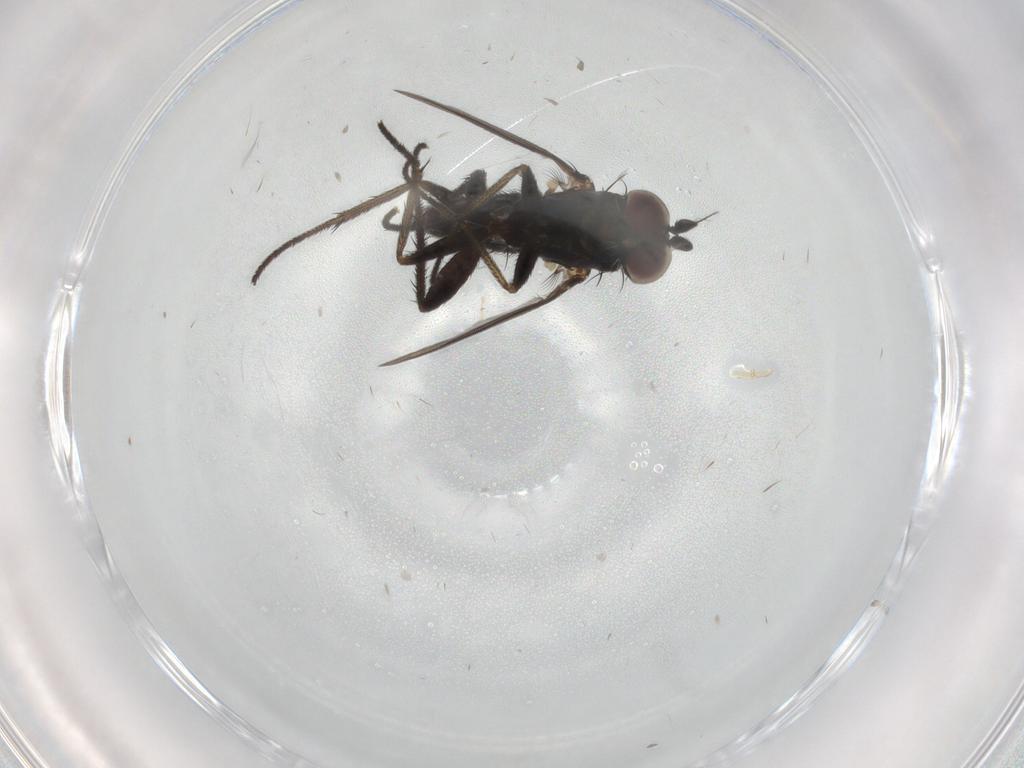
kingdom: Animalia
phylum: Arthropoda
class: Insecta
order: Diptera
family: Dolichopodidae
